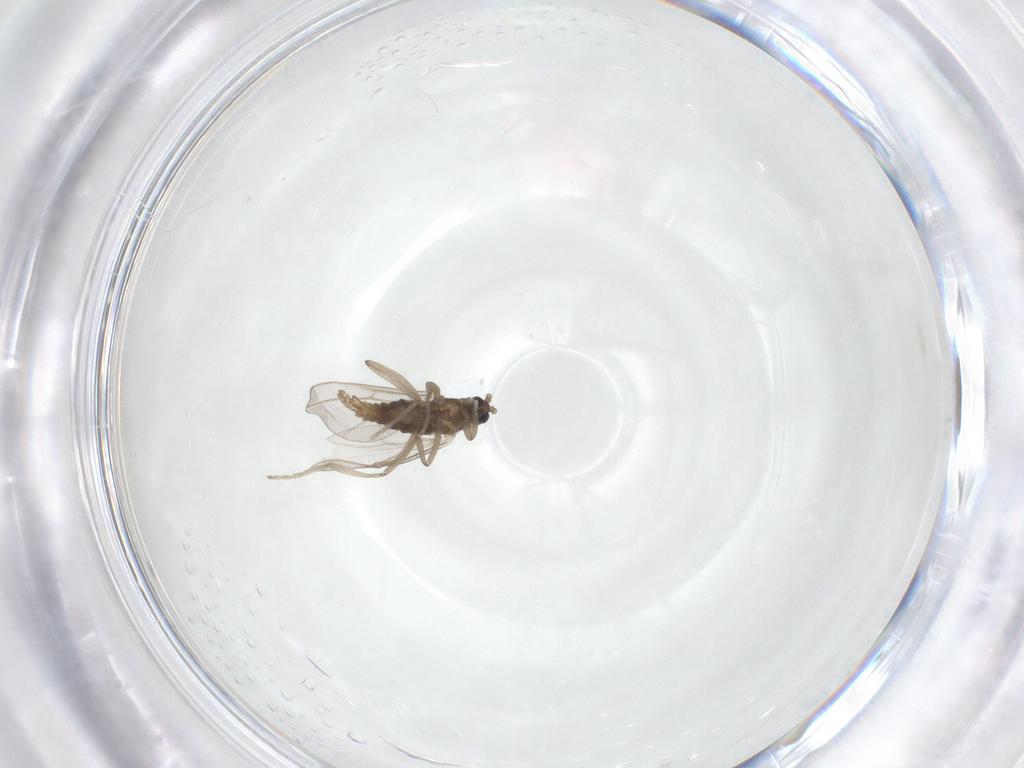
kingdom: Animalia
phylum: Arthropoda
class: Insecta
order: Diptera
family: Cecidomyiidae
